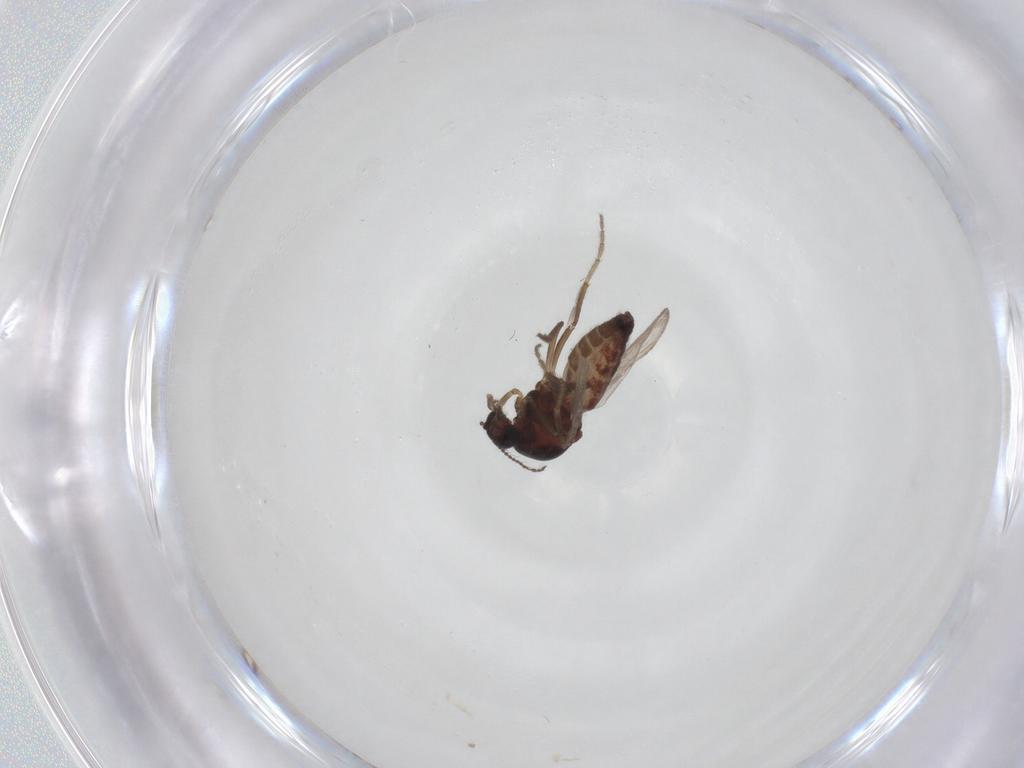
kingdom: Animalia
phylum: Arthropoda
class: Insecta
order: Diptera
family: Ceratopogonidae
